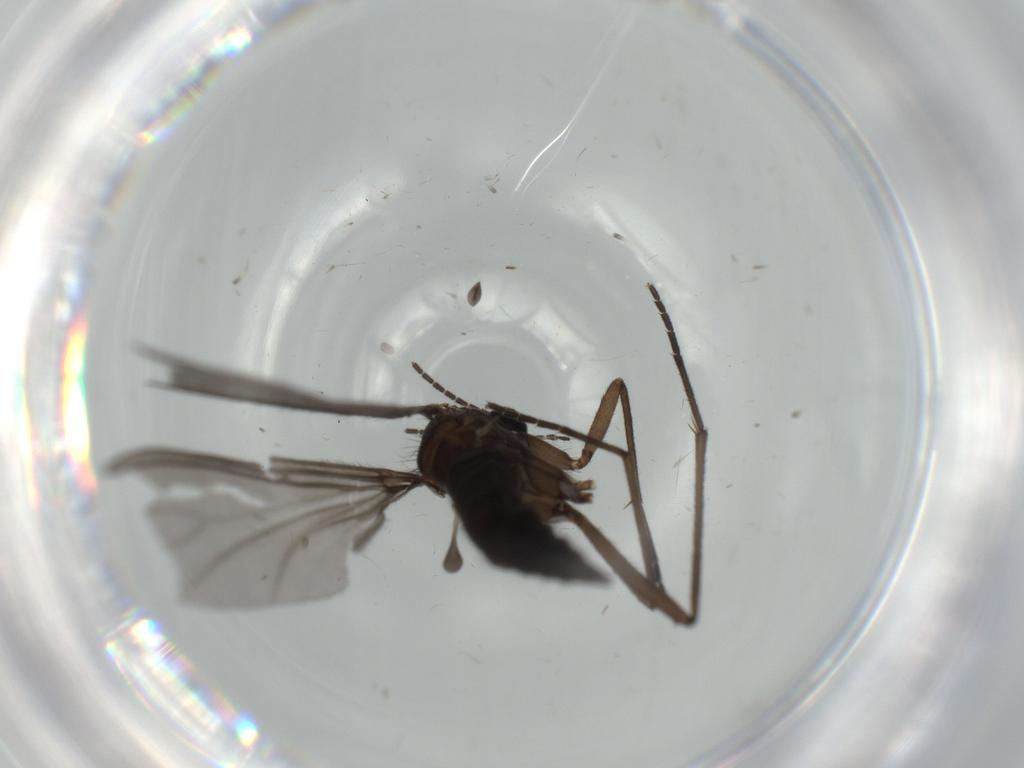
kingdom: Animalia
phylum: Arthropoda
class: Insecta
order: Diptera
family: Sciaridae
